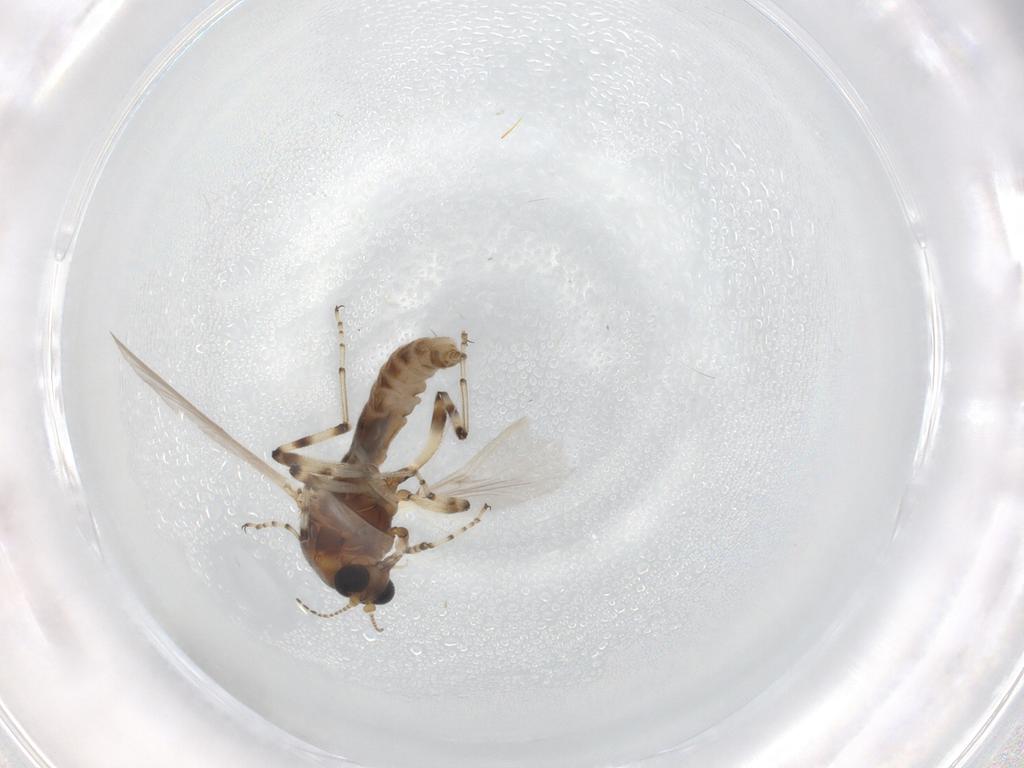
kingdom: Animalia
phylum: Arthropoda
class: Insecta
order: Diptera
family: Ceratopogonidae
